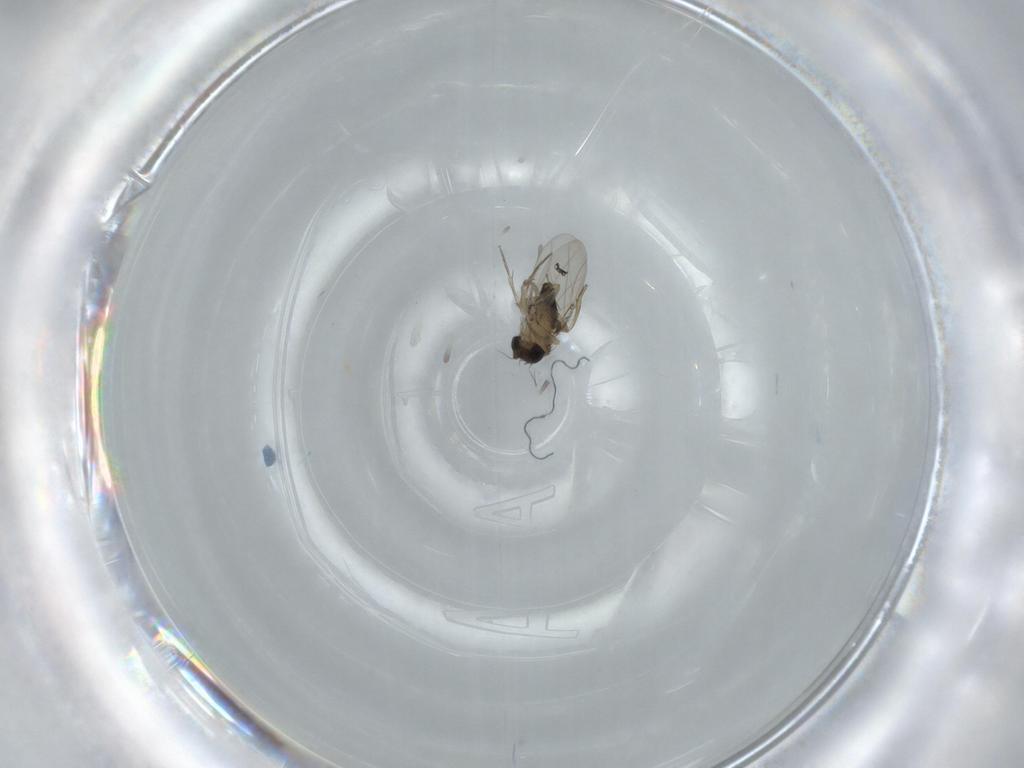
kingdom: Animalia
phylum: Arthropoda
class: Insecta
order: Diptera
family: Phoridae
